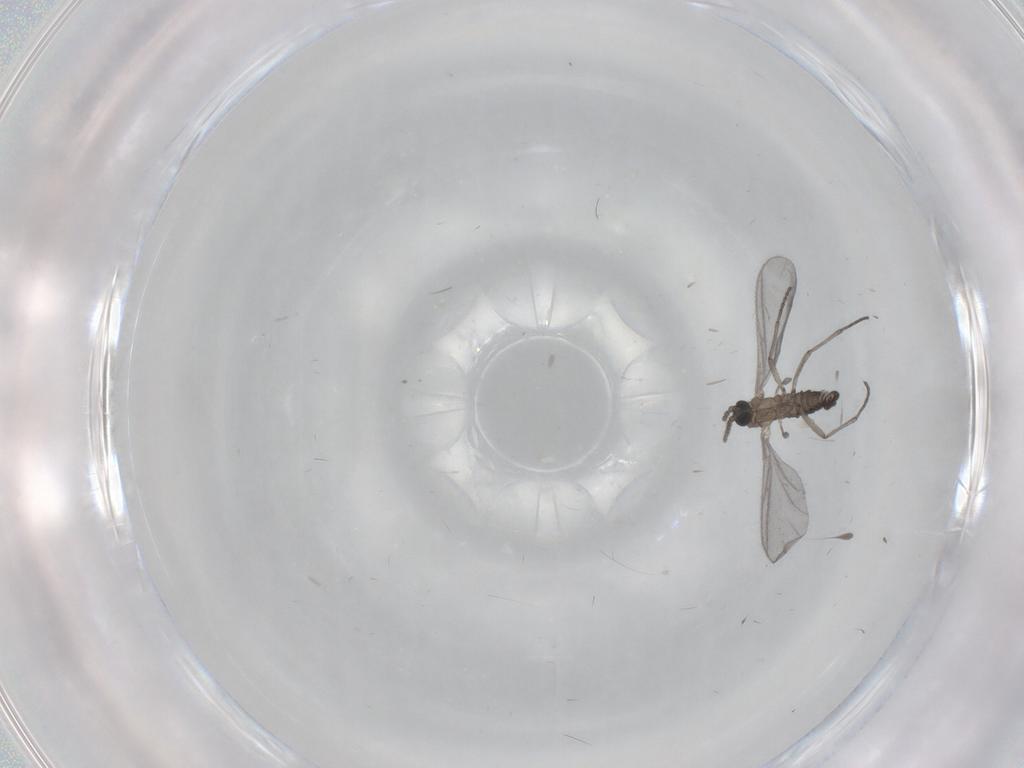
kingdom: Animalia
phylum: Arthropoda
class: Insecta
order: Diptera
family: Sciaridae
